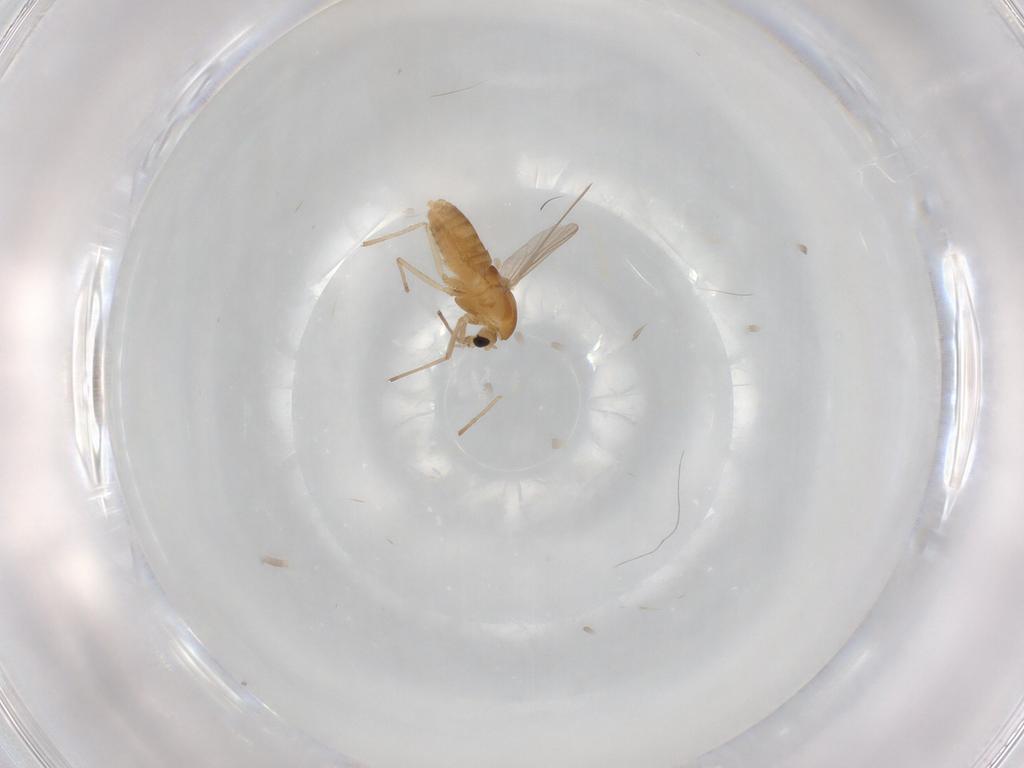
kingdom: Animalia
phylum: Arthropoda
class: Insecta
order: Diptera
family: Chironomidae
